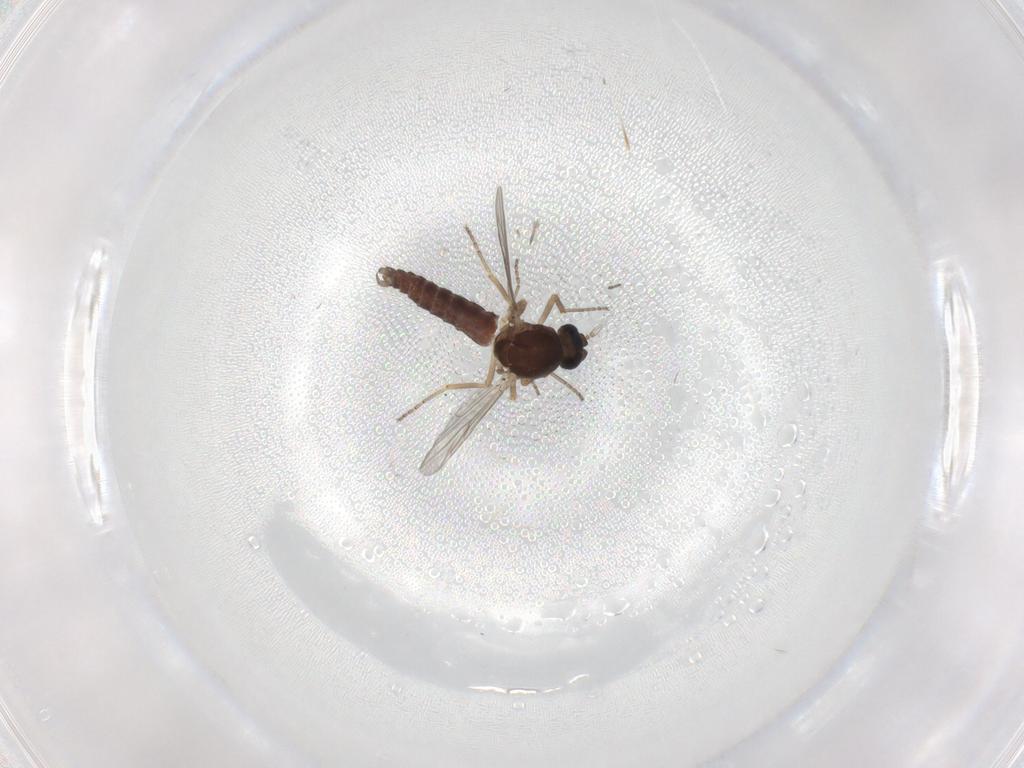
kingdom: Animalia
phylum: Arthropoda
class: Insecta
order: Diptera
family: Ceratopogonidae
